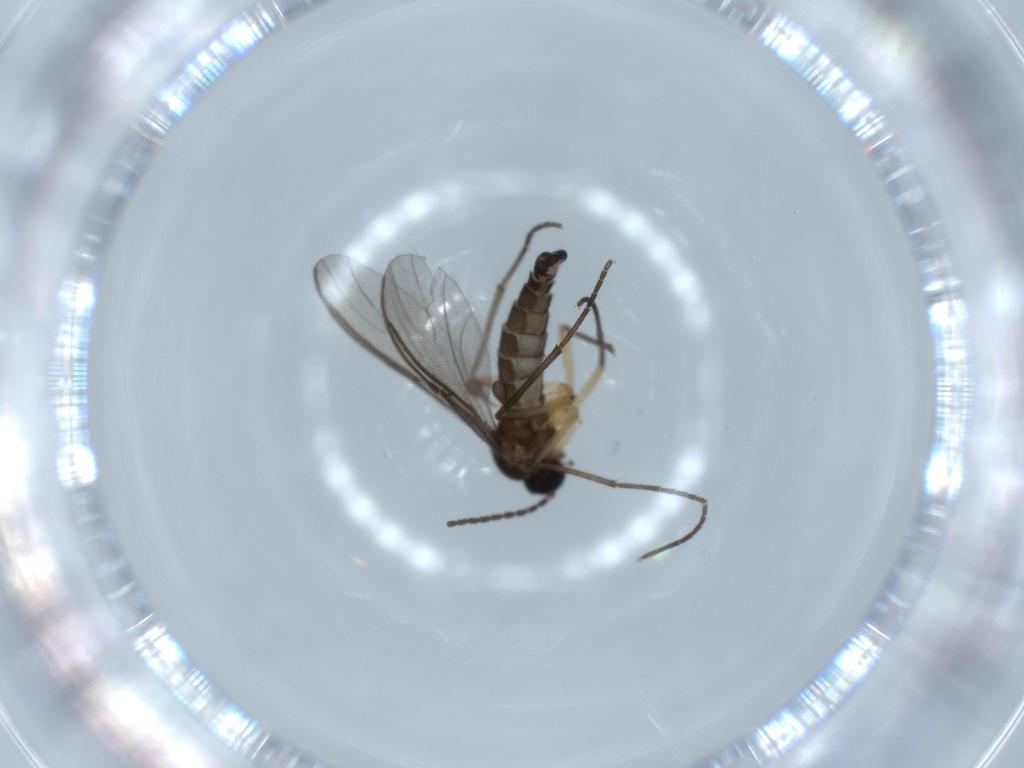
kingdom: Animalia
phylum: Arthropoda
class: Insecta
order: Diptera
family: Sciaridae
